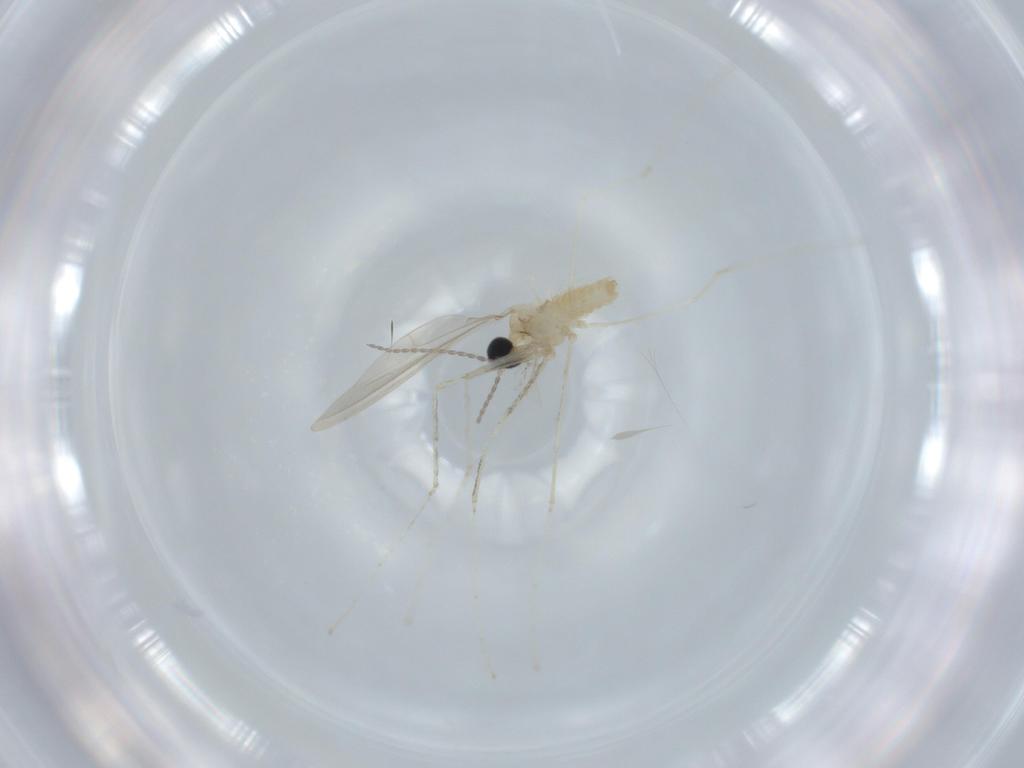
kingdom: Animalia
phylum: Arthropoda
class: Insecta
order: Diptera
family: Cecidomyiidae
